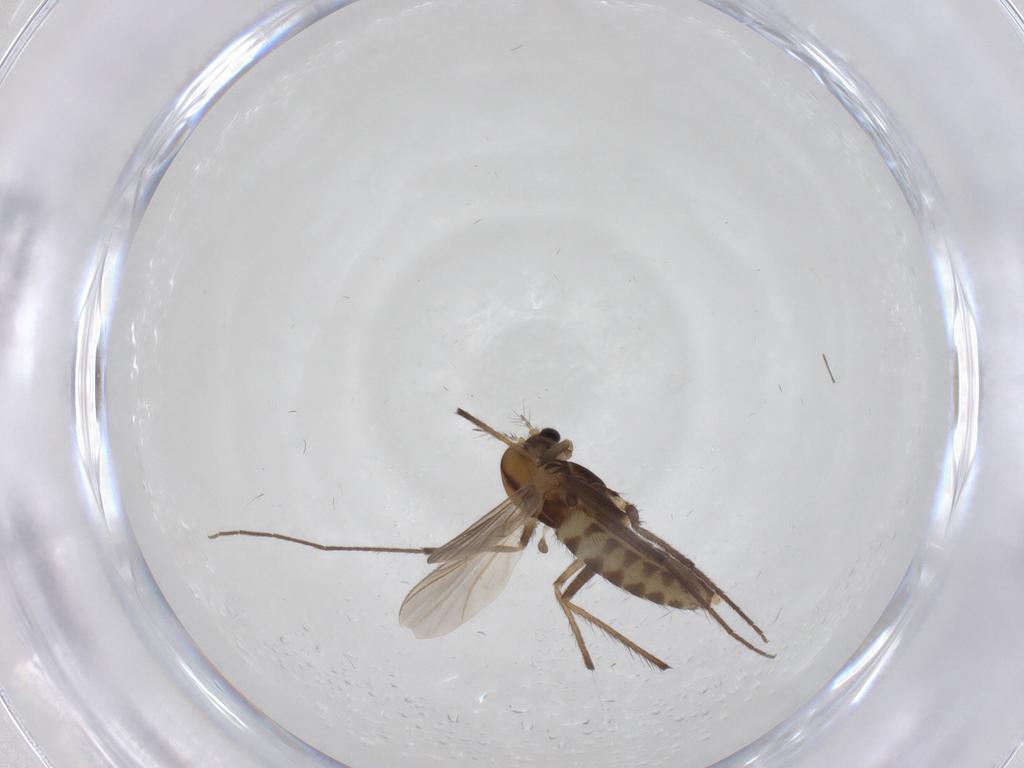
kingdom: Animalia
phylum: Arthropoda
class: Insecta
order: Diptera
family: Chironomidae
